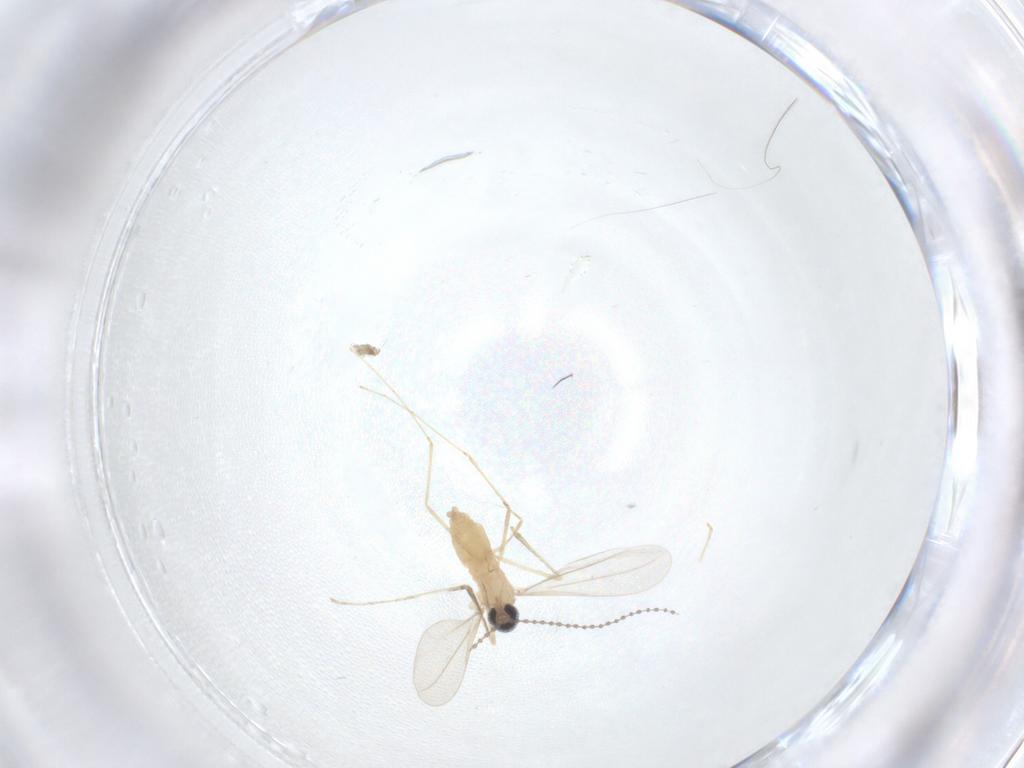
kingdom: Animalia
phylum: Arthropoda
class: Insecta
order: Diptera
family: Cecidomyiidae
